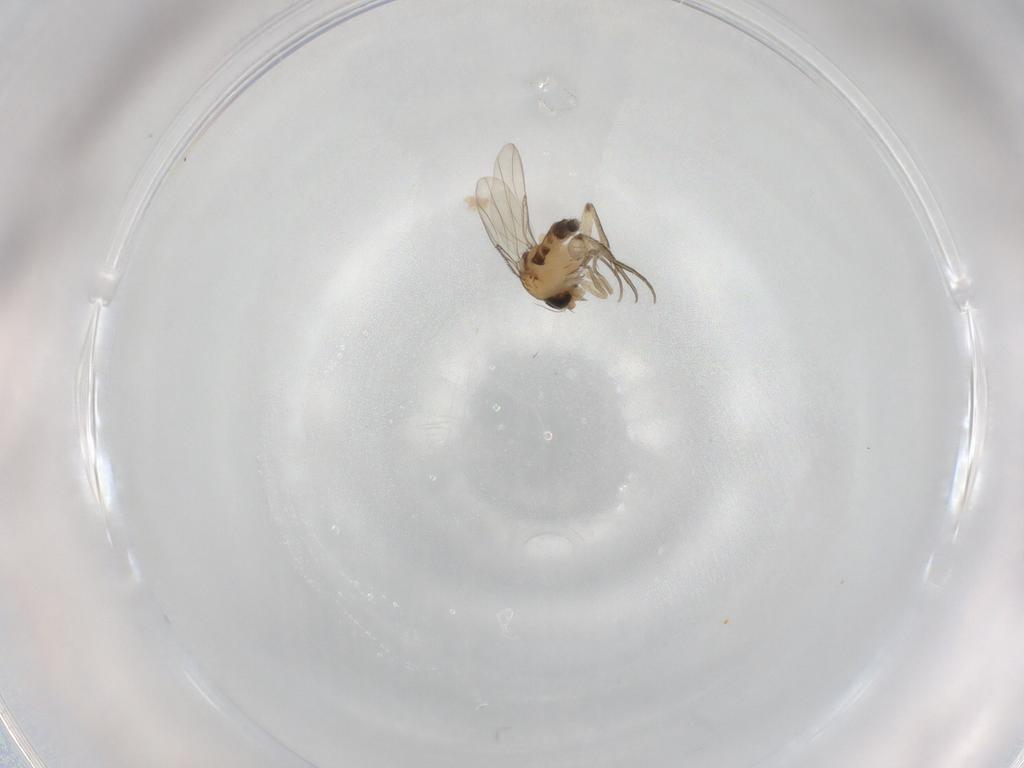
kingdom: Animalia
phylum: Arthropoda
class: Insecta
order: Diptera
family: Phoridae
